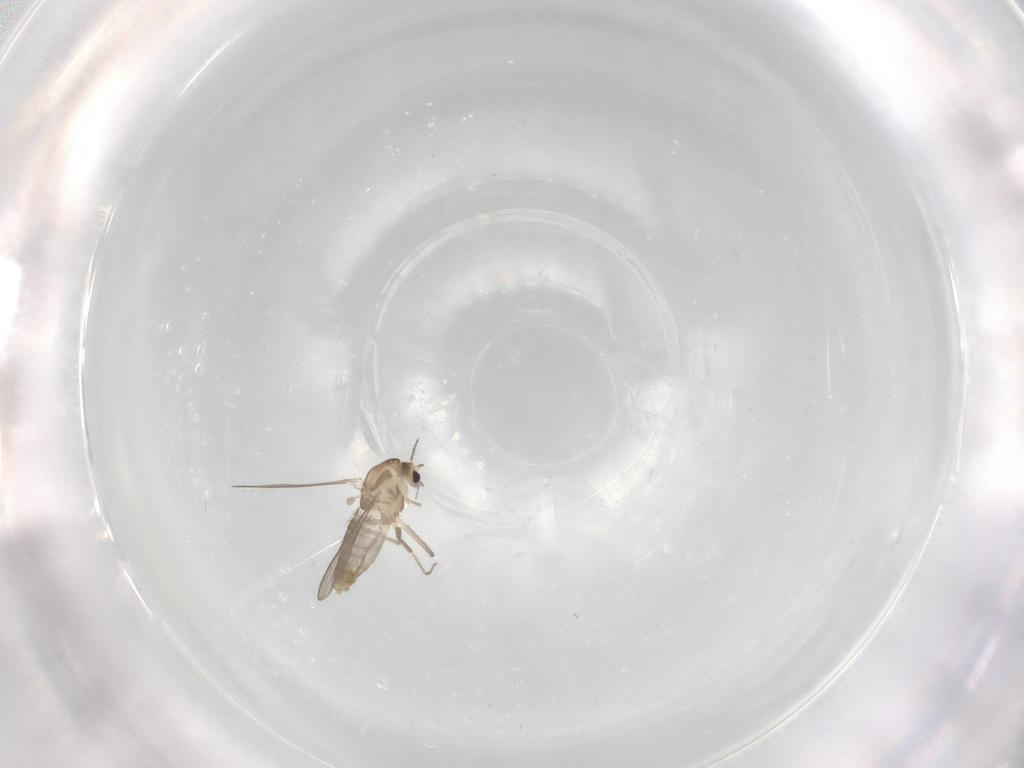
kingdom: Animalia
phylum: Arthropoda
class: Insecta
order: Diptera
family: Chironomidae
